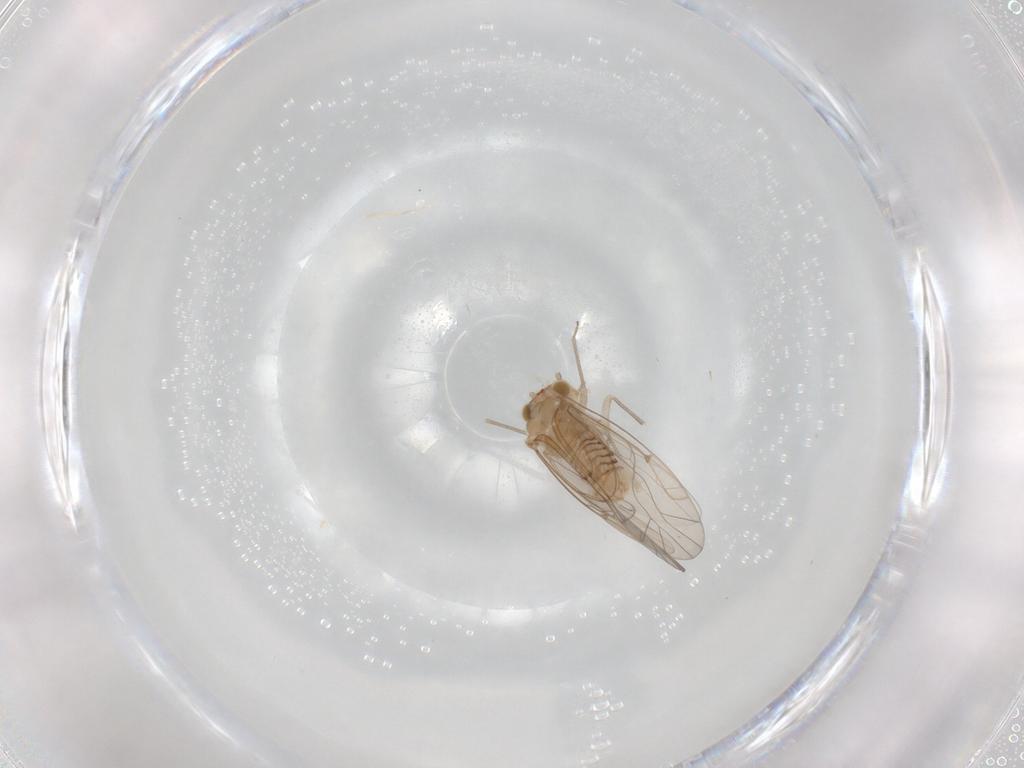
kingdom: Animalia
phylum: Arthropoda
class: Insecta
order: Psocodea
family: Lachesillidae
